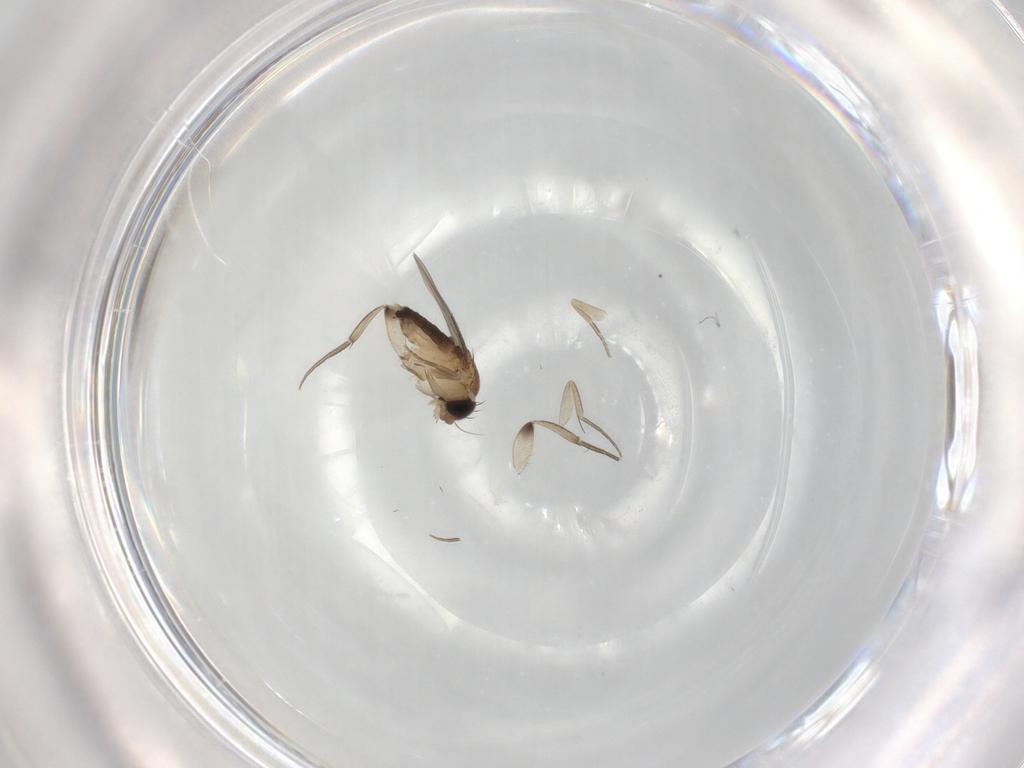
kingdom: Animalia
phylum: Arthropoda
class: Insecta
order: Diptera
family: Phoridae
